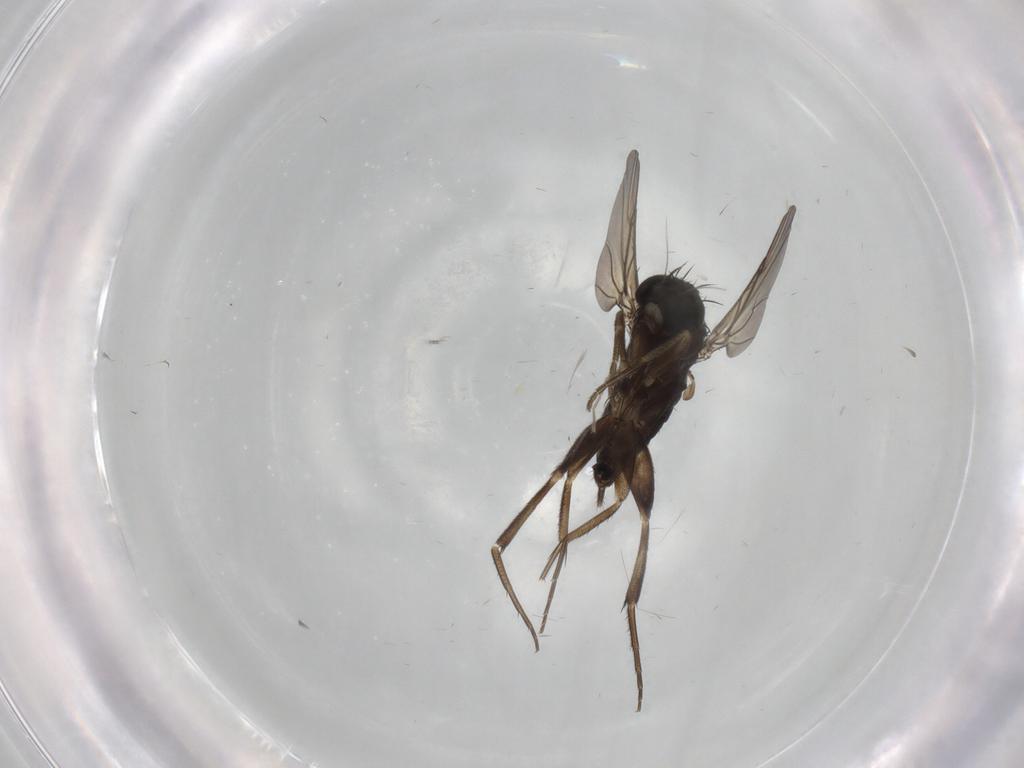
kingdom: Animalia
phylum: Arthropoda
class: Insecta
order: Diptera
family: Phoridae
